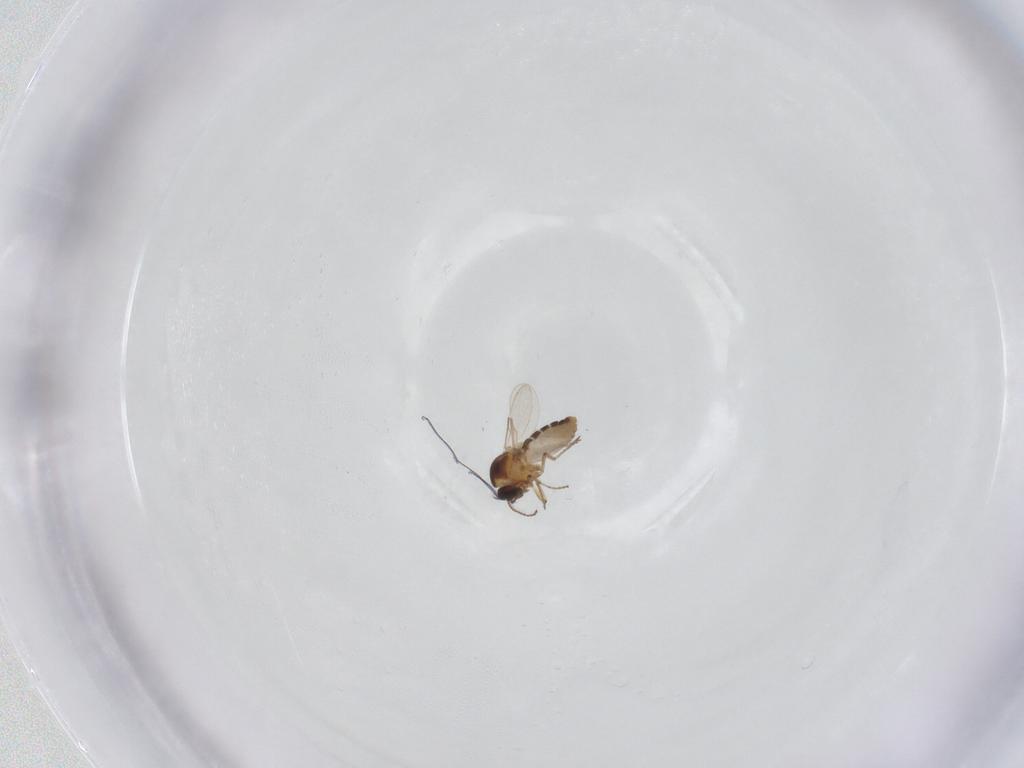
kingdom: Animalia
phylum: Arthropoda
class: Insecta
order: Diptera
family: Ceratopogonidae
